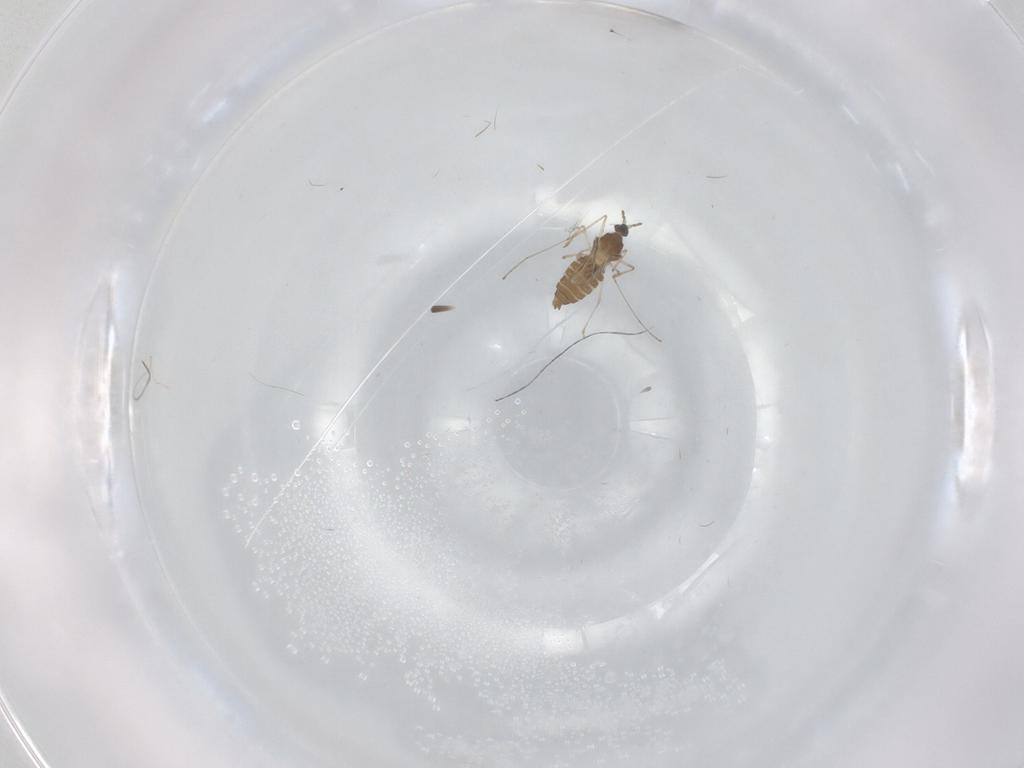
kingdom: Animalia
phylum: Arthropoda
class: Insecta
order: Diptera
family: Cecidomyiidae
